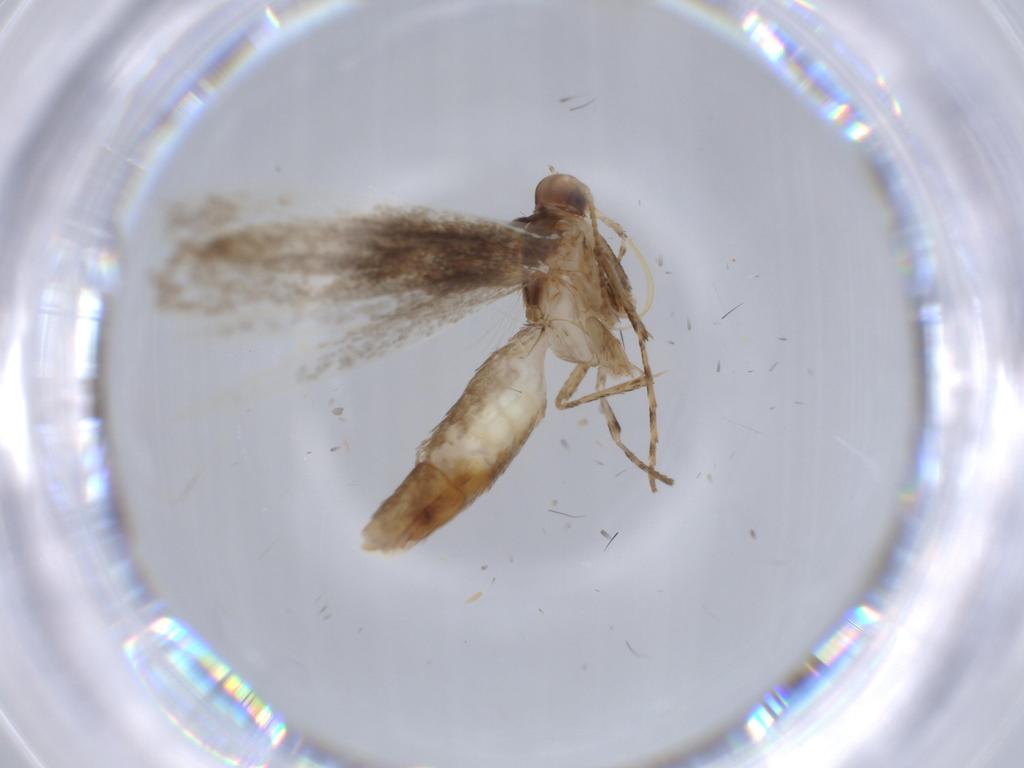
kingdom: Animalia
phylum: Arthropoda
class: Insecta
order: Lepidoptera
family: Gracillariidae
